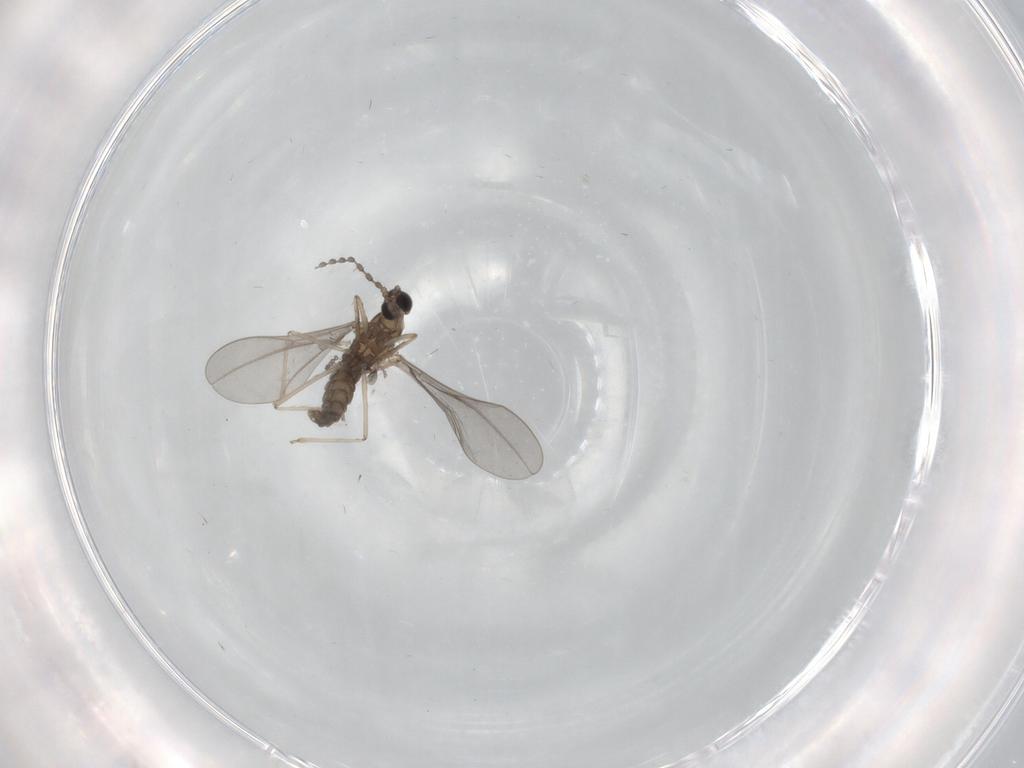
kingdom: Animalia
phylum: Arthropoda
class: Insecta
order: Diptera
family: Cecidomyiidae
